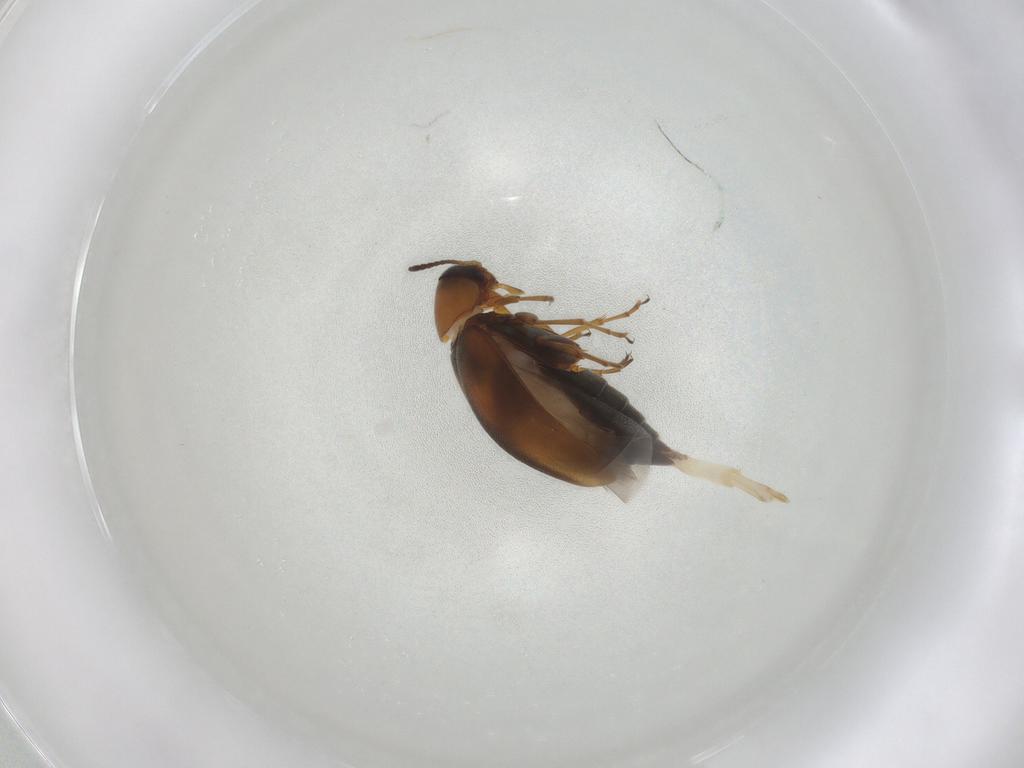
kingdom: Animalia
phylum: Arthropoda
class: Insecta
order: Coleoptera
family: Scraptiidae
